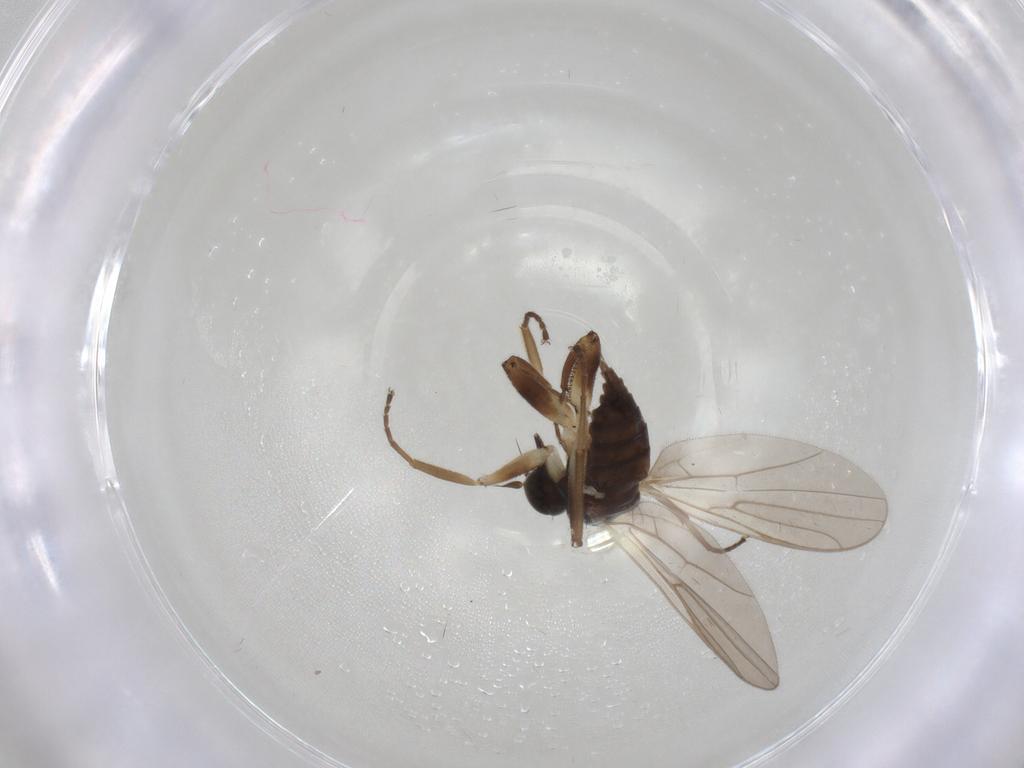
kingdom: Animalia
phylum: Arthropoda
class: Insecta
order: Diptera
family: Hybotidae
